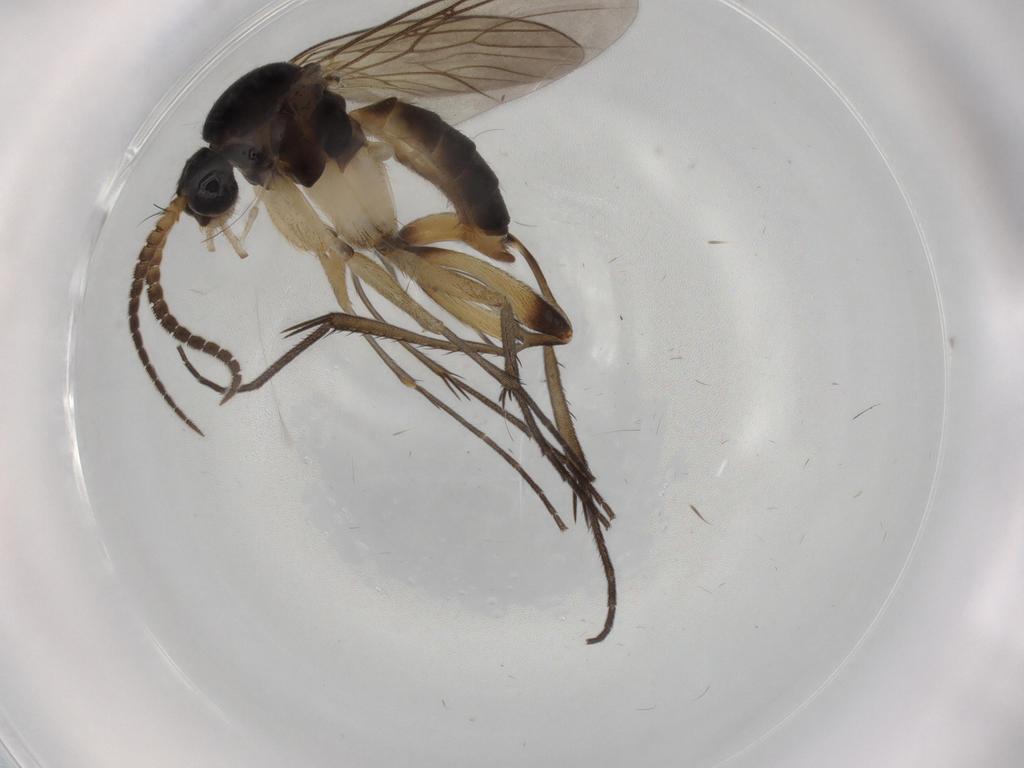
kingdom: Animalia
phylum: Arthropoda
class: Insecta
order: Diptera
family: Mycetophilidae
